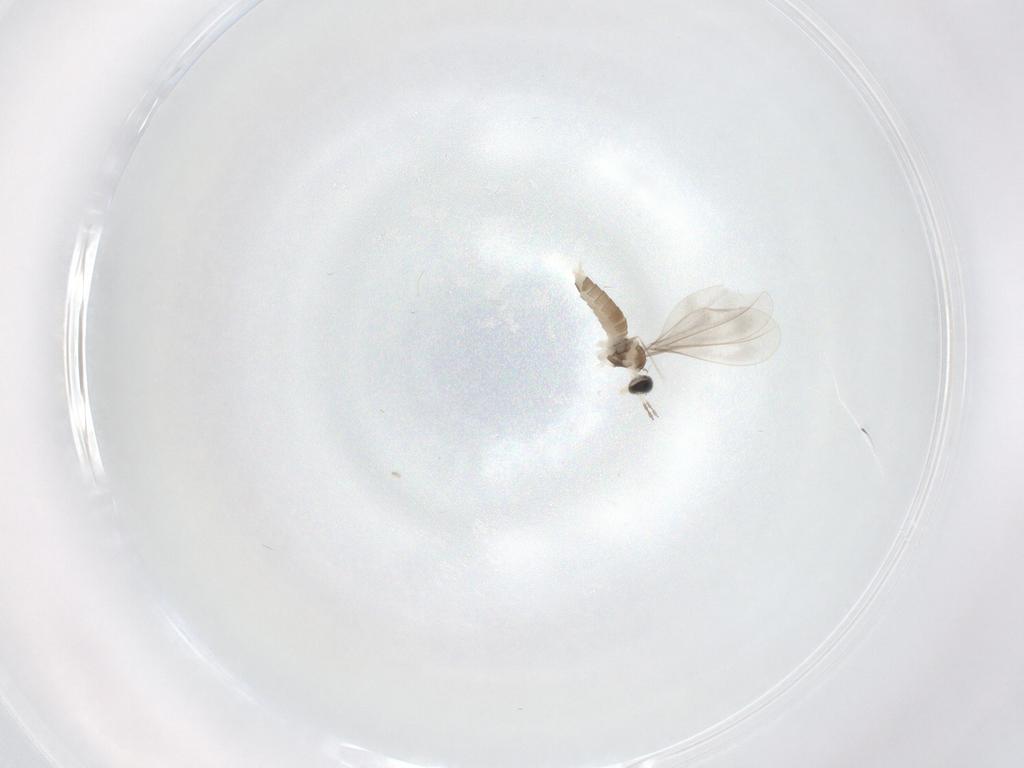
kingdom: Animalia
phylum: Arthropoda
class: Insecta
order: Diptera
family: Cecidomyiidae
